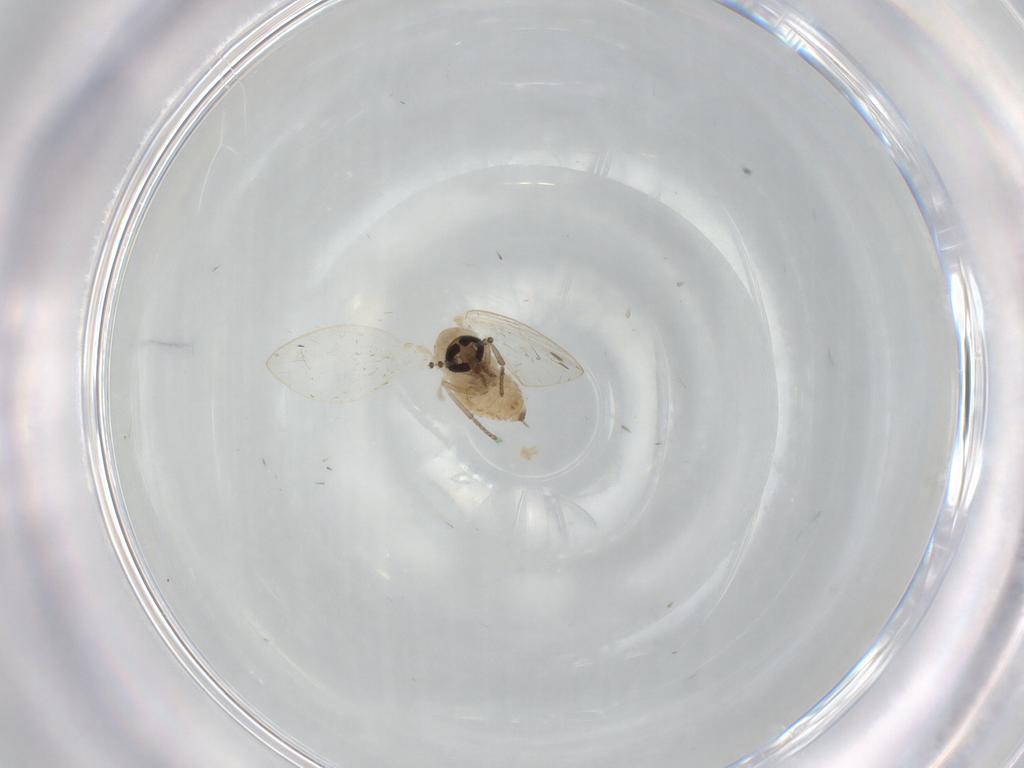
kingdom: Animalia
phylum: Arthropoda
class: Insecta
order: Diptera
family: Psychodidae
